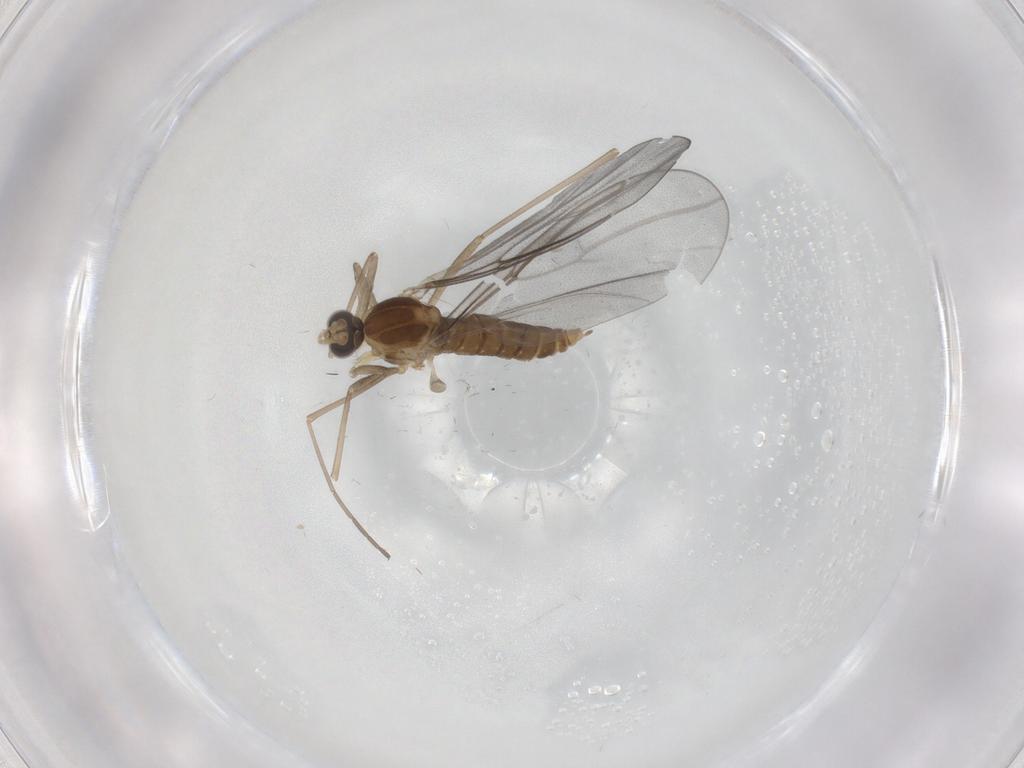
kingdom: Animalia
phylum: Arthropoda
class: Insecta
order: Diptera
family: Cecidomyiidae
